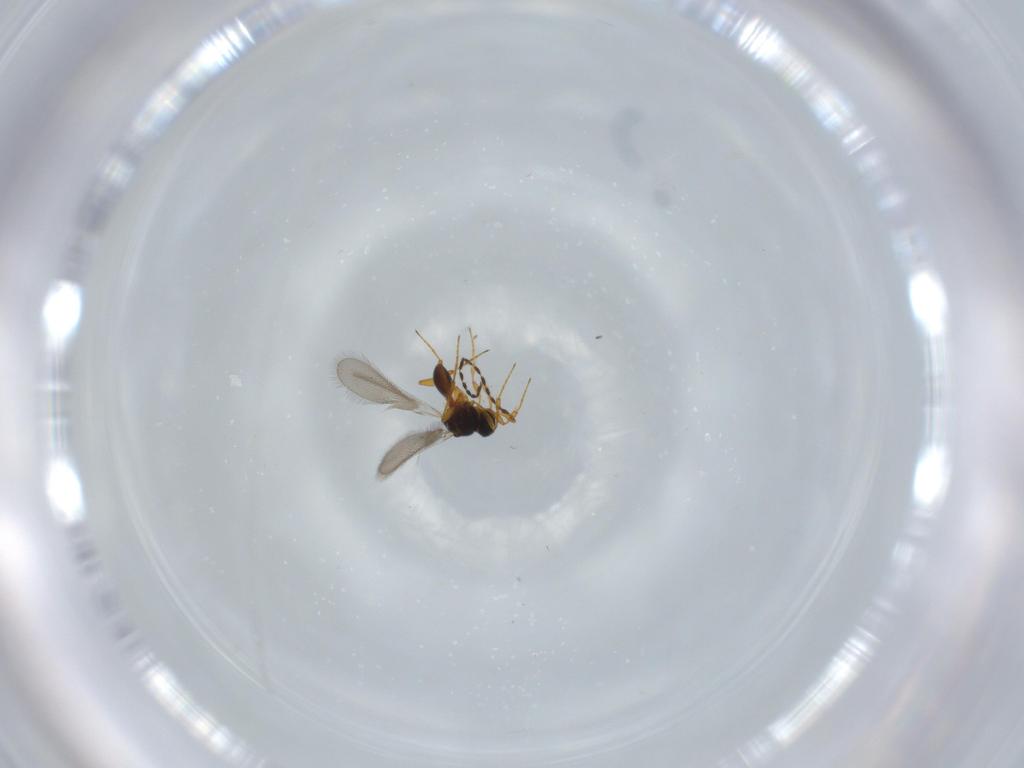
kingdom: Animalia
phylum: Arthropoda
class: Insecta
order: Hymenoptera
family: Platygastridae
